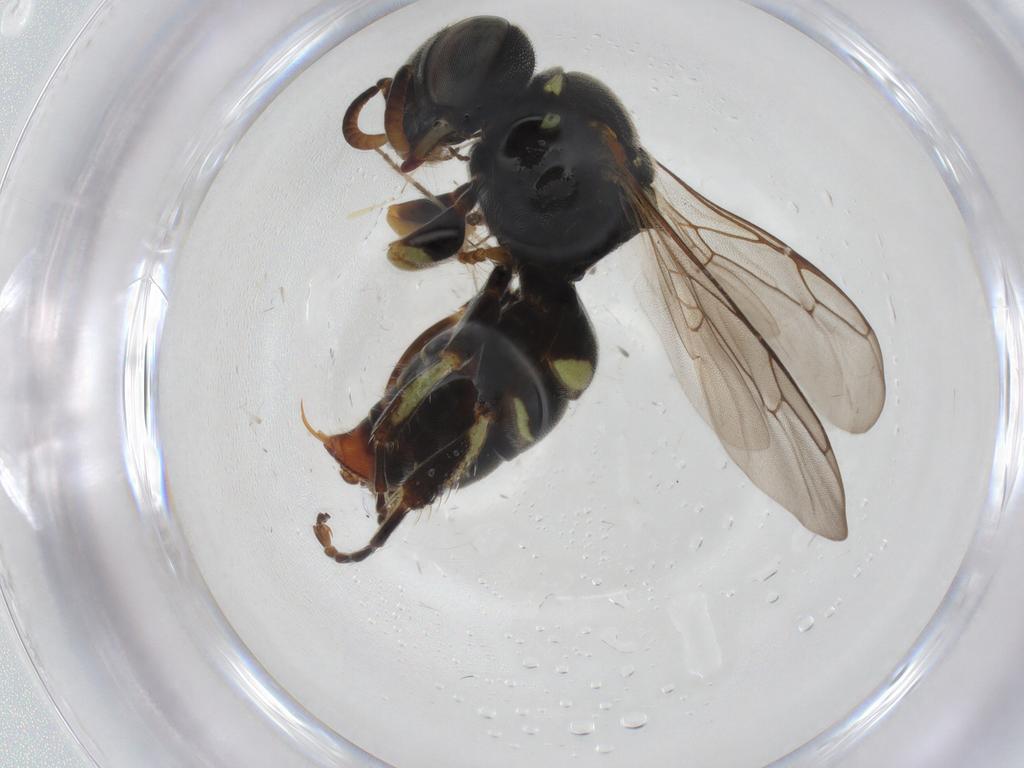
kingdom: Animalia
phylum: Arthropoda
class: Insecta
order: Hymenoptera
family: Crabronidae
